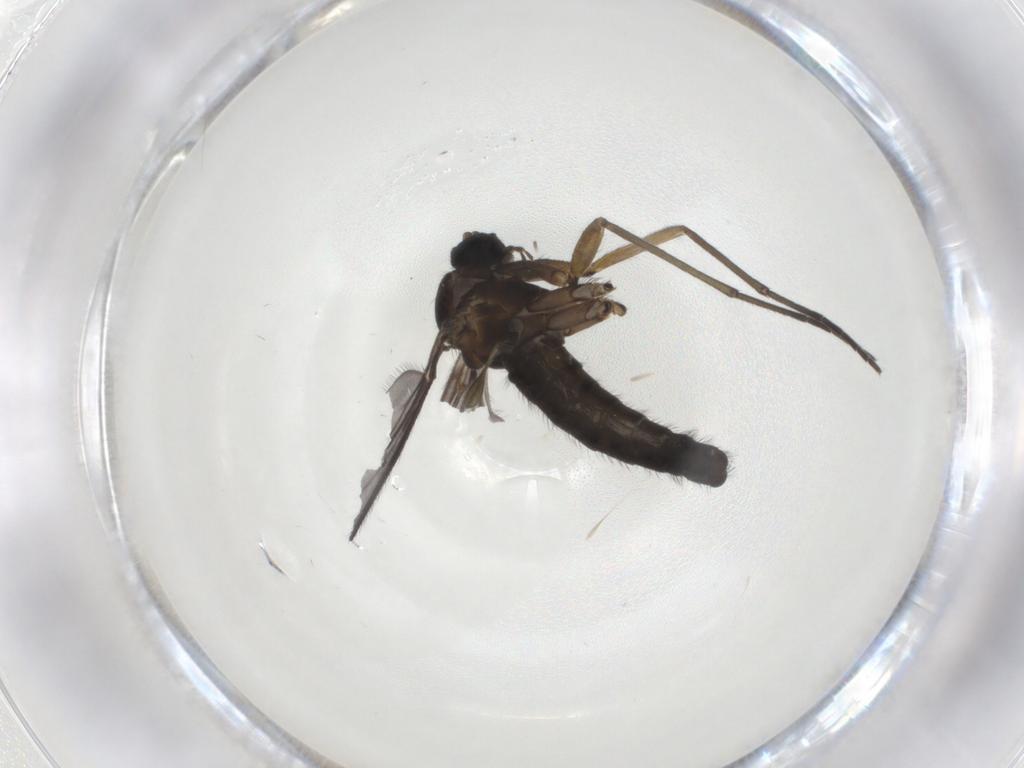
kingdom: Animalia
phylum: Arthropoda
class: Insecta
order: Diptera
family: Sciaridae
